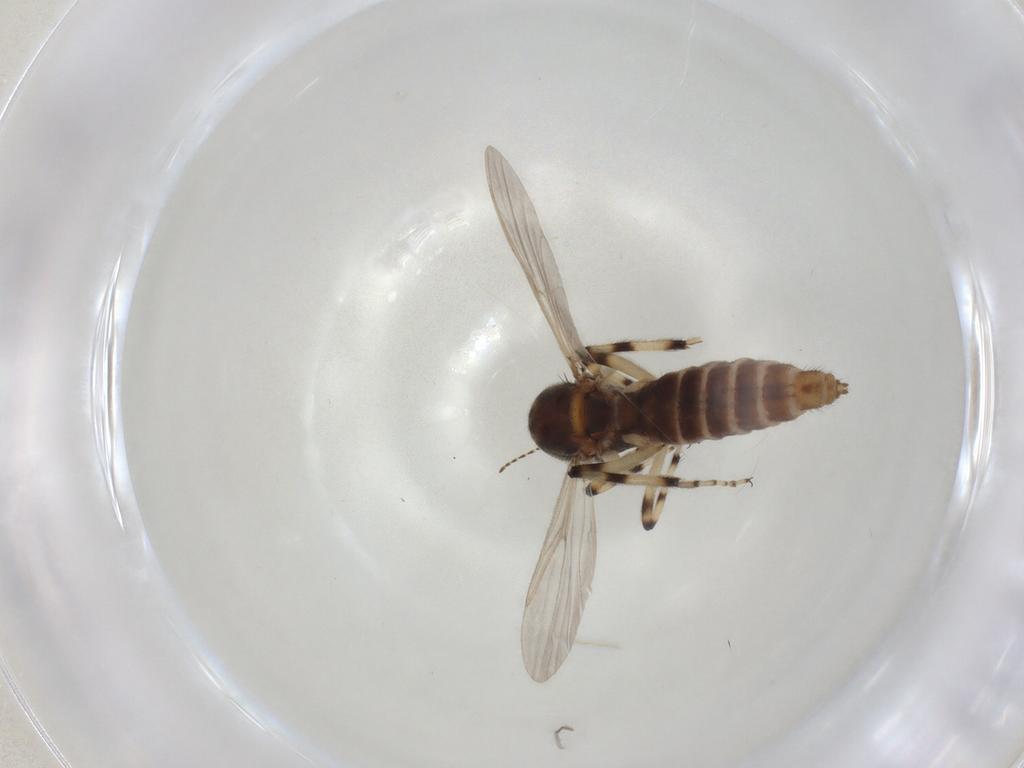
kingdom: Animalia
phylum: Arthropoda
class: Insecta
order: Diptera
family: Ceratopogonidae
